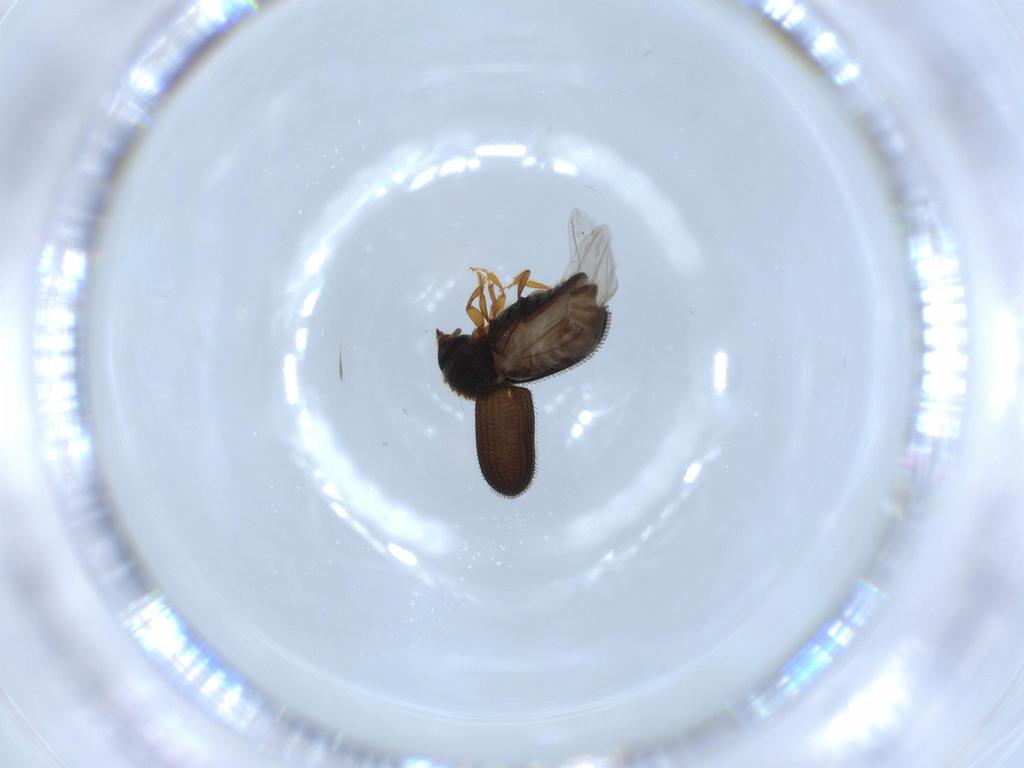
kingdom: Animalia
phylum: Arthropoda
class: Insecta
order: Coleoptera
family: Curculionidae
